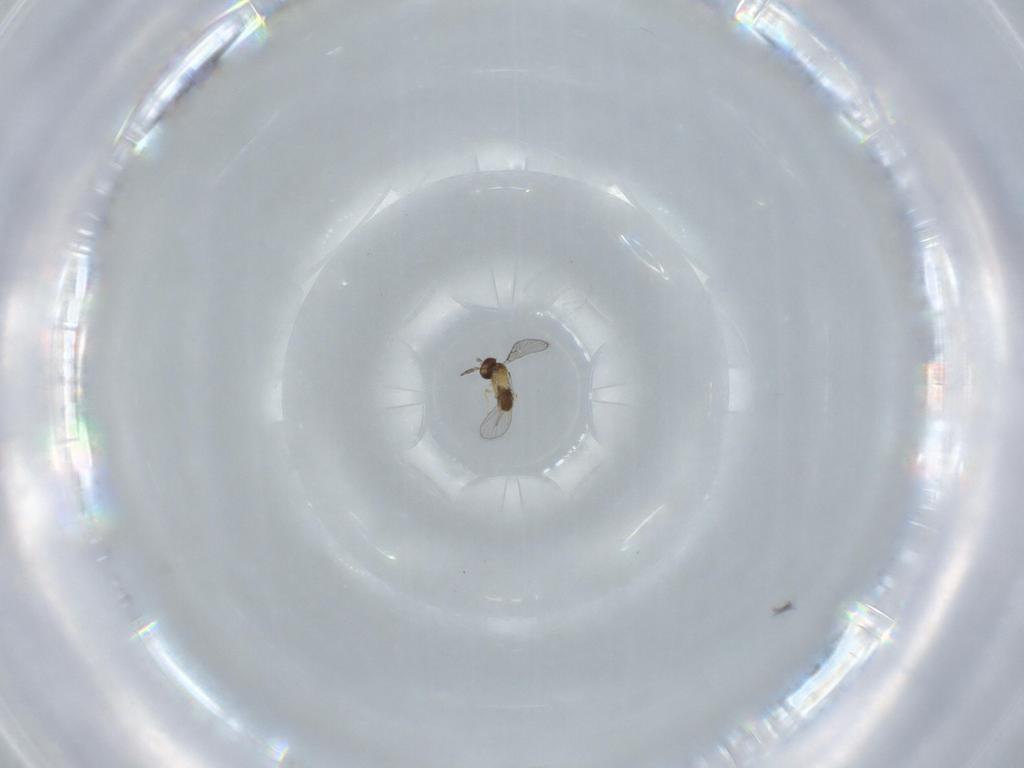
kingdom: Animalia
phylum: Arthropoda
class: Insecta
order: Hymenoptera
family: Trichogrammatidae
